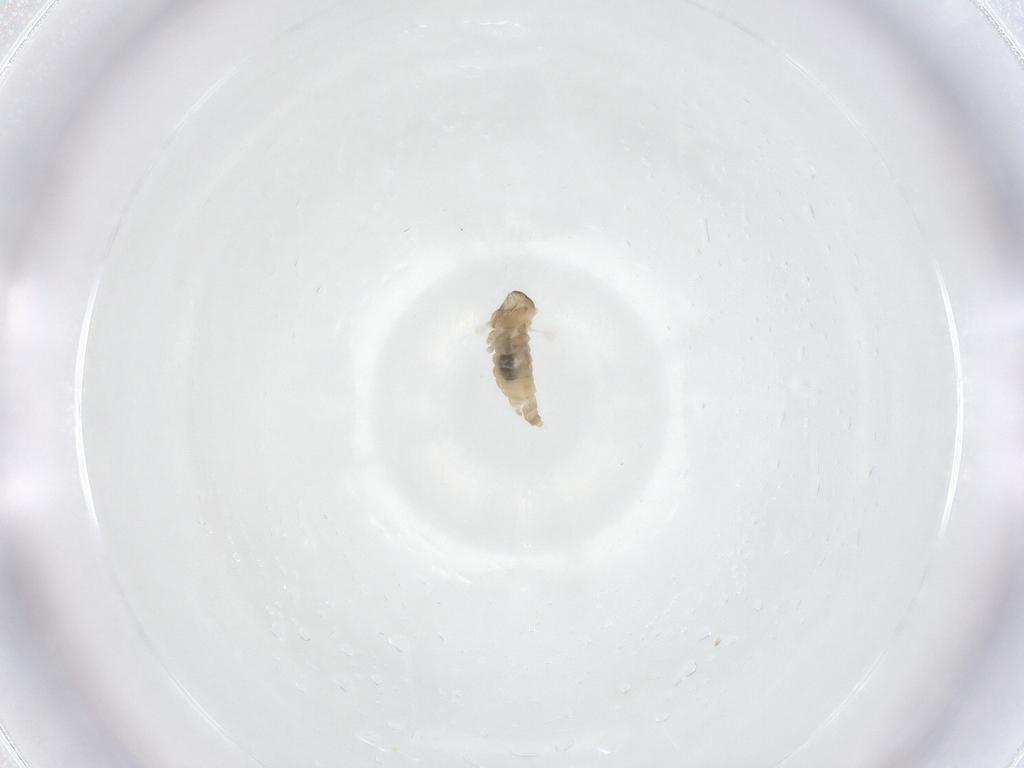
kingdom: Animalia
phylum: Arthropoda
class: Insecta
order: Diptera
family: Cecidomyiidae
